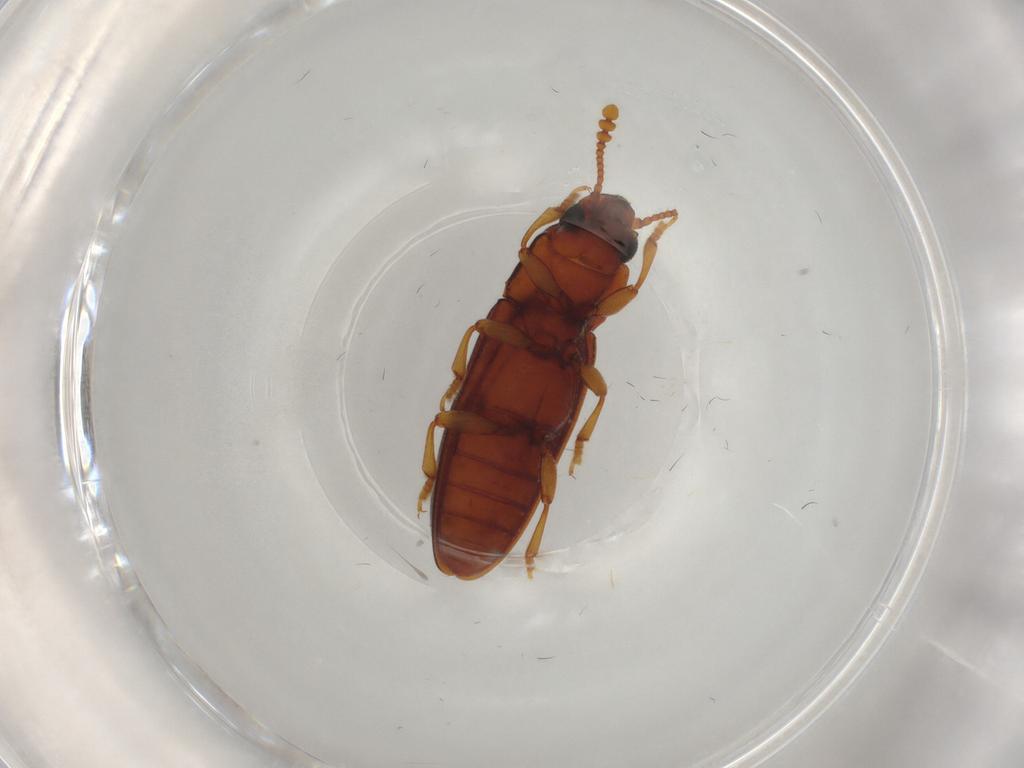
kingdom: Animalia
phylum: Arthropoda
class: Insecta
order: Coleoptera
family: Erotylidae
